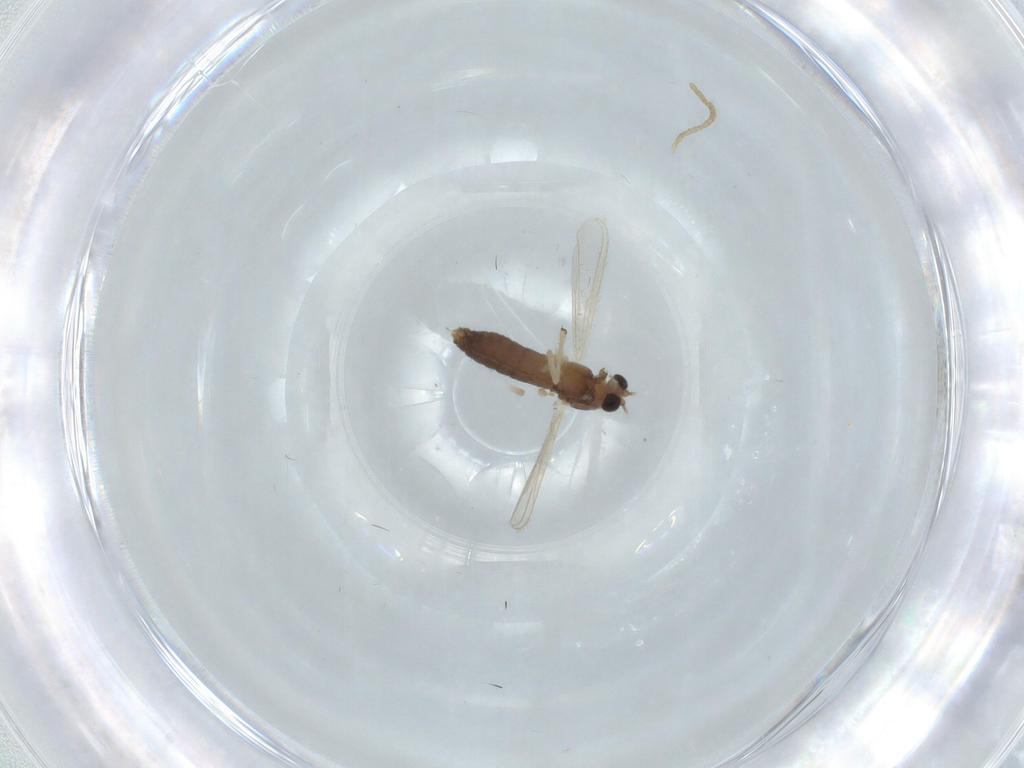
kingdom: Animalia
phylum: Arthropoda
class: Insecta
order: Diptera
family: Chironomidae
